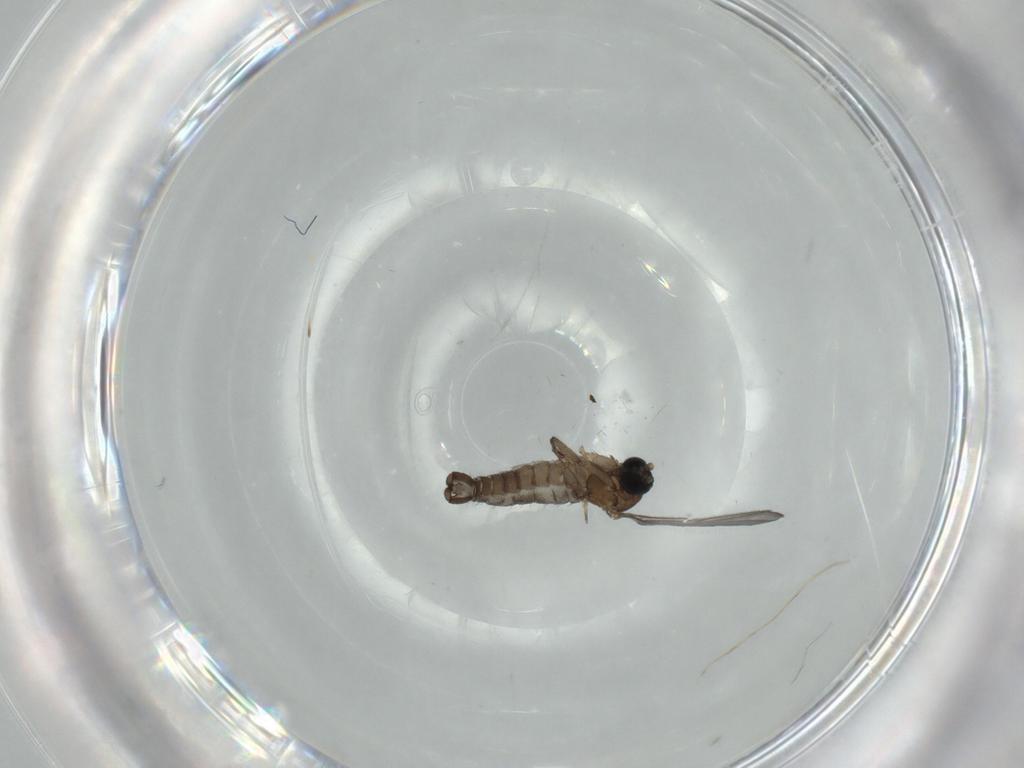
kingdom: Animalia
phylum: Arthropoda
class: Insecta
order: Diptera
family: Sciaridae
